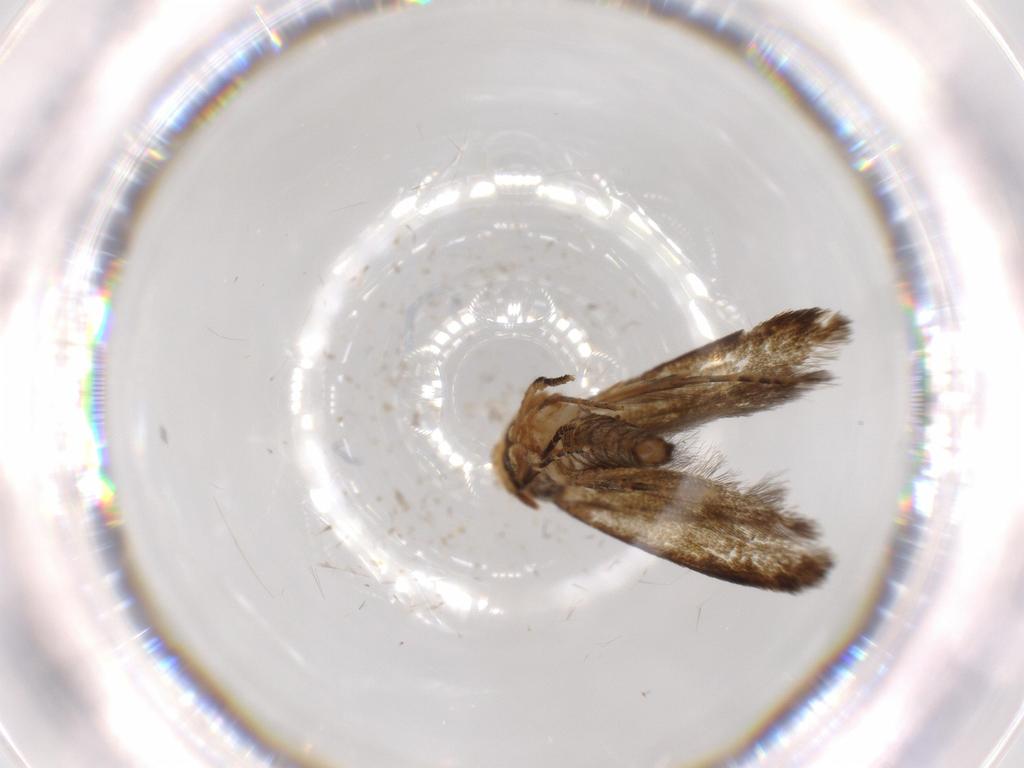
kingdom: Animalia
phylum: Arthropoda
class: Insecta
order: Lepidoptera
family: Tineidae
